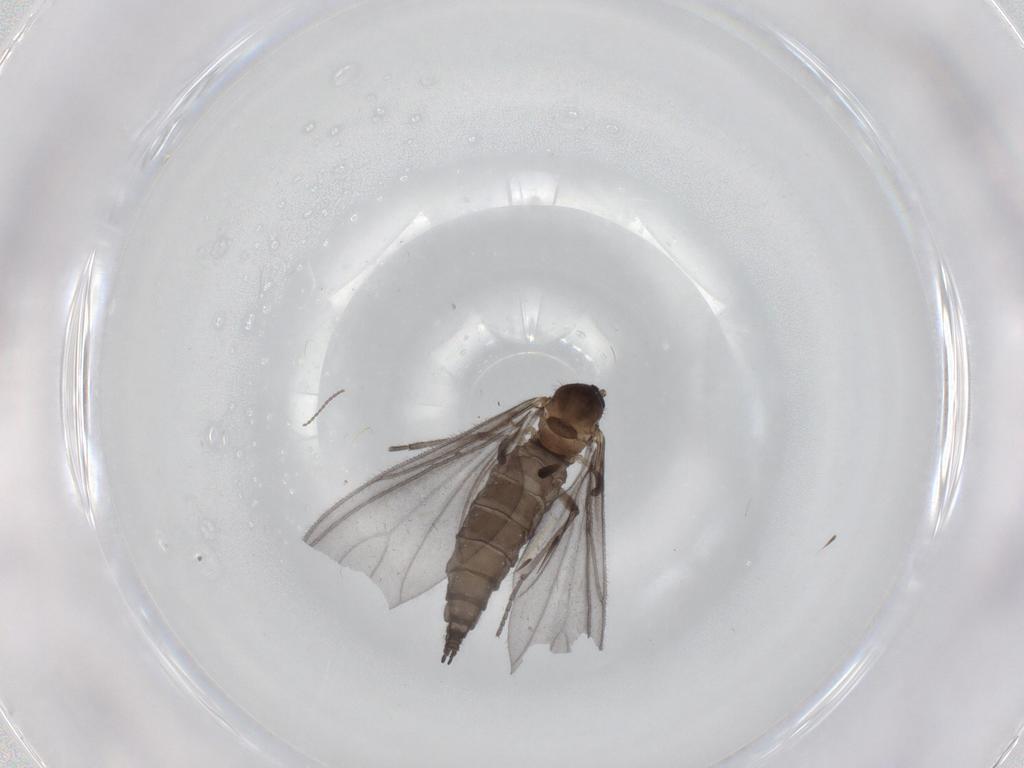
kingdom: Animalia
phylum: Arthropoda
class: Insecta
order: Diptera
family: Sciaridae
